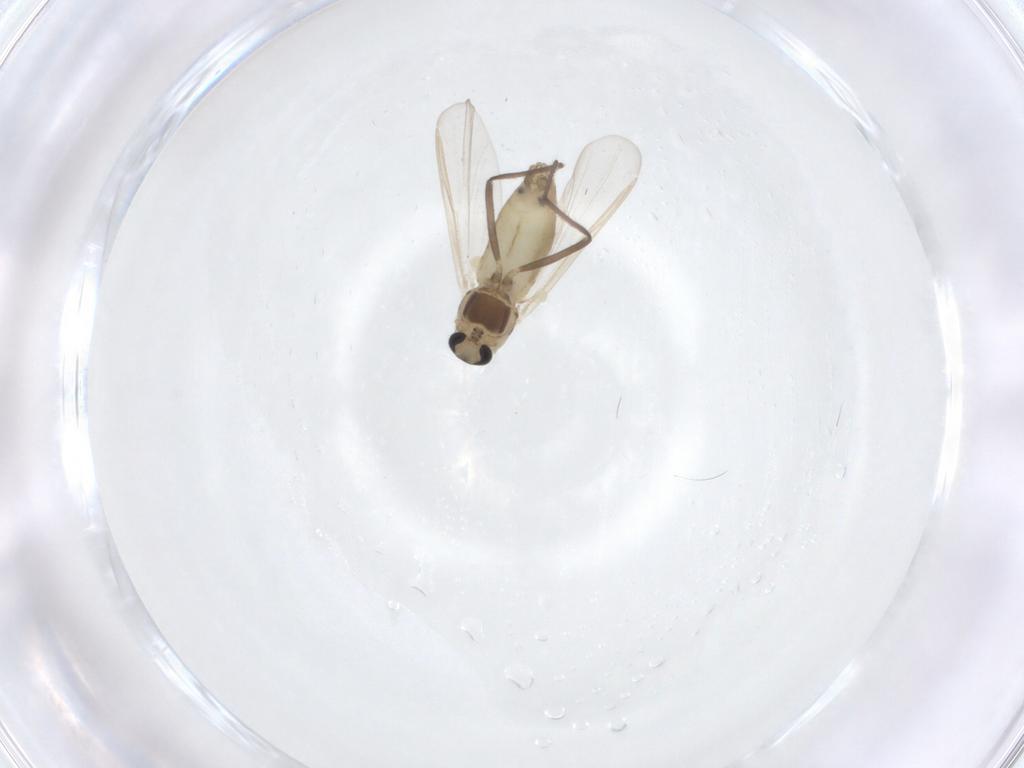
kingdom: Animalia
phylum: Arthropoda
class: Insecta
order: Diptera
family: Chironomidae
